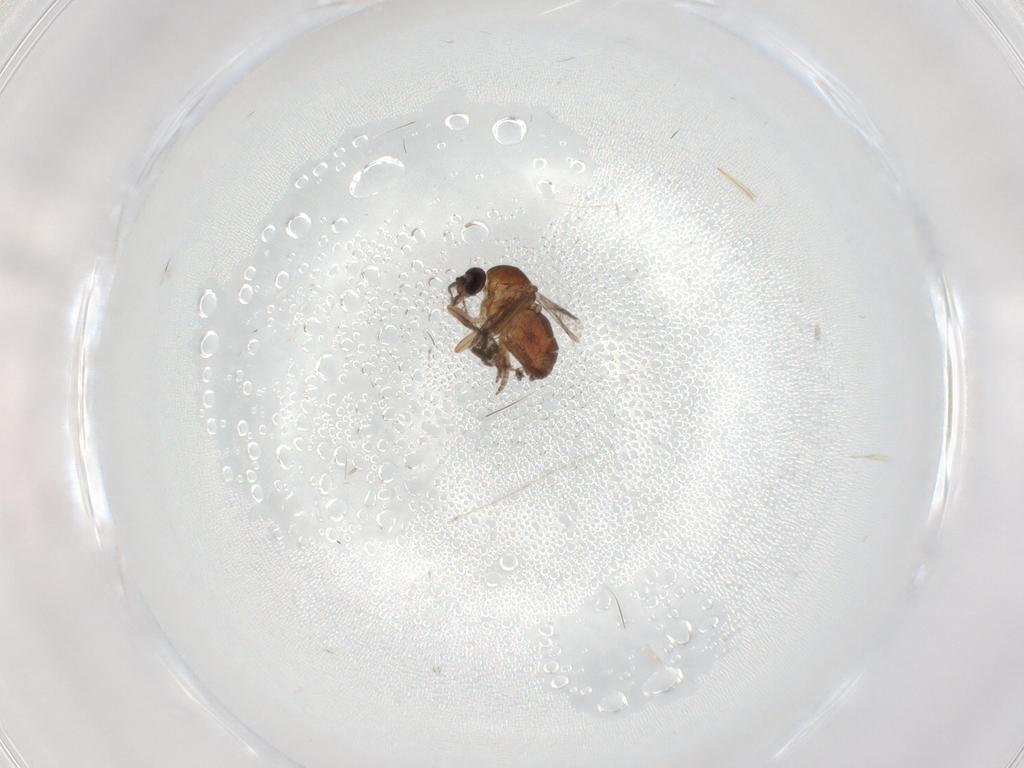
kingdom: Animalia
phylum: Arthropoda
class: Insecta
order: Diptera
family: Ceratopogonidae
